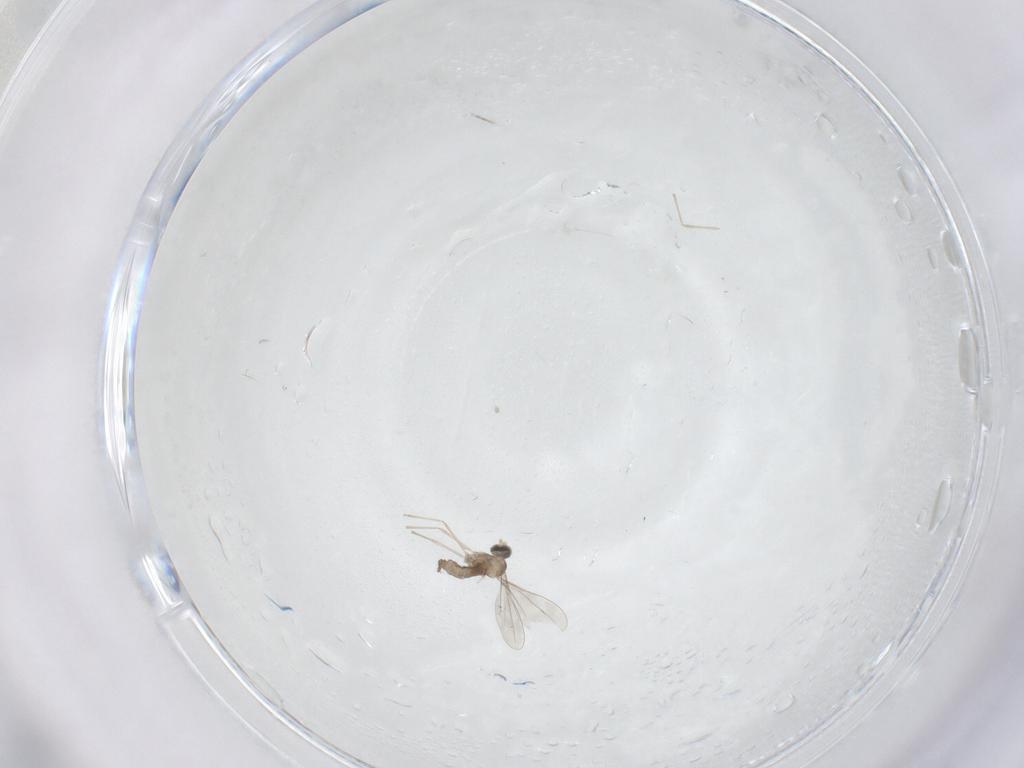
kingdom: Animalia
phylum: Arthropoda
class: Insecta
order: Diptera
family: Cecidomyiidae
